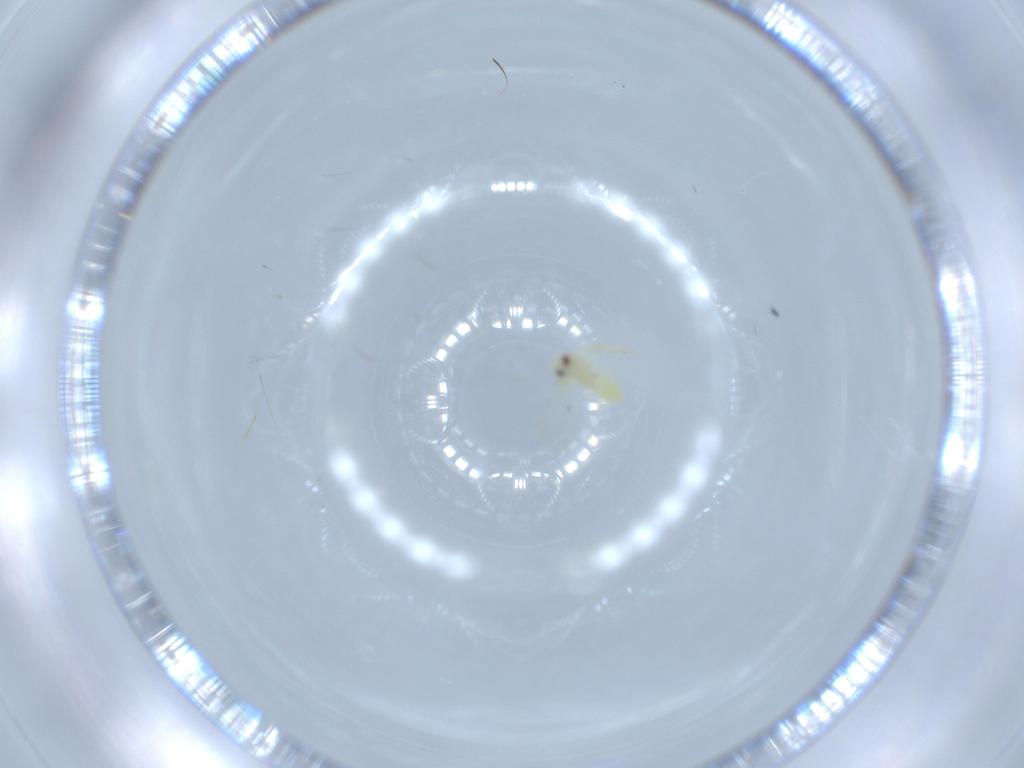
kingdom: Animalia
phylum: Arthropoda
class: Insecta
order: Hemiptera
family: Aleyrodidae
